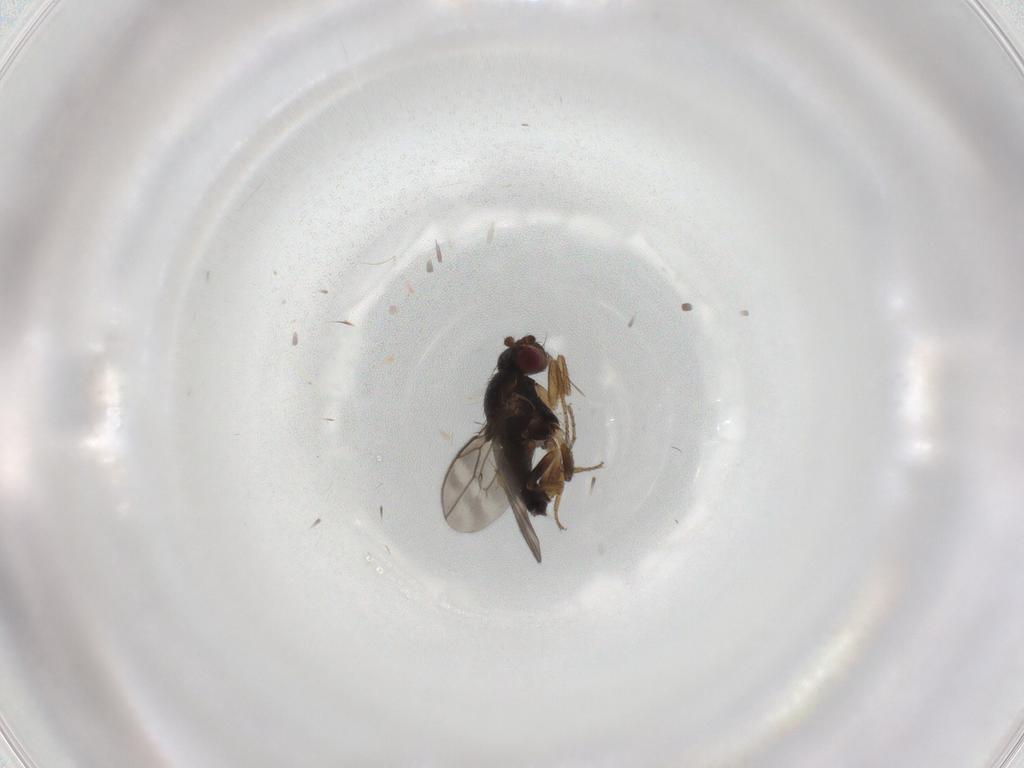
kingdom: Animalia
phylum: Arthropoda
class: Insecta
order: Diptera
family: Sphaeroceridae
